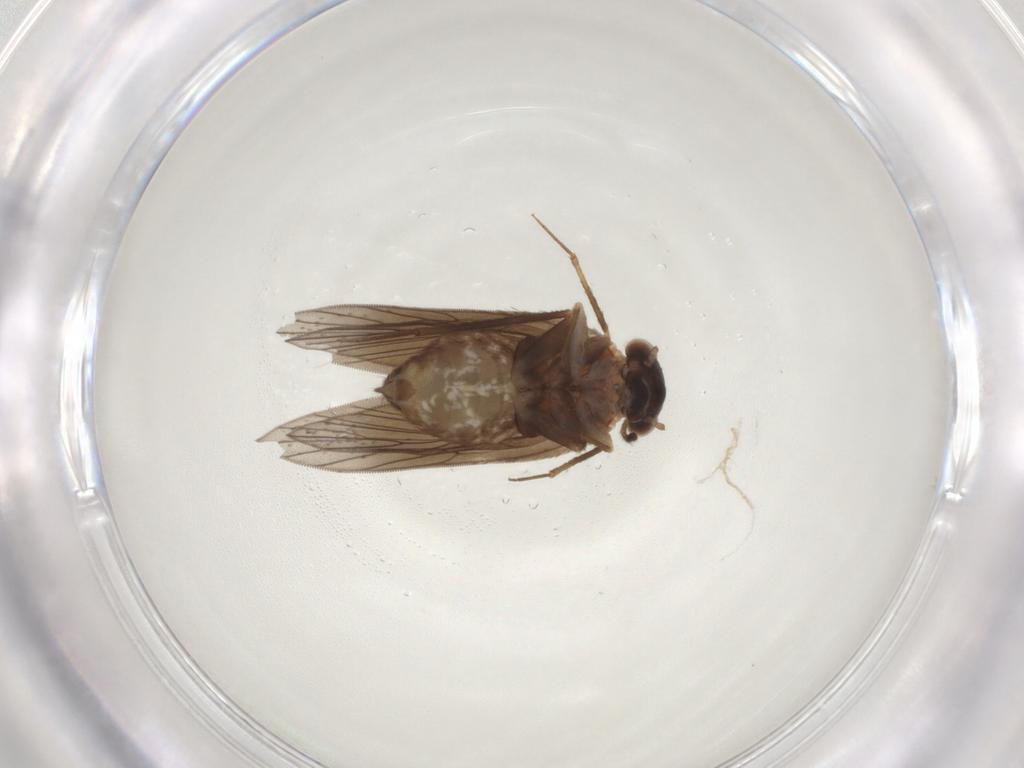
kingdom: Animalia
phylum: Arthropoda
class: Insecta
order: Psocodea
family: Lepidopsocidae
